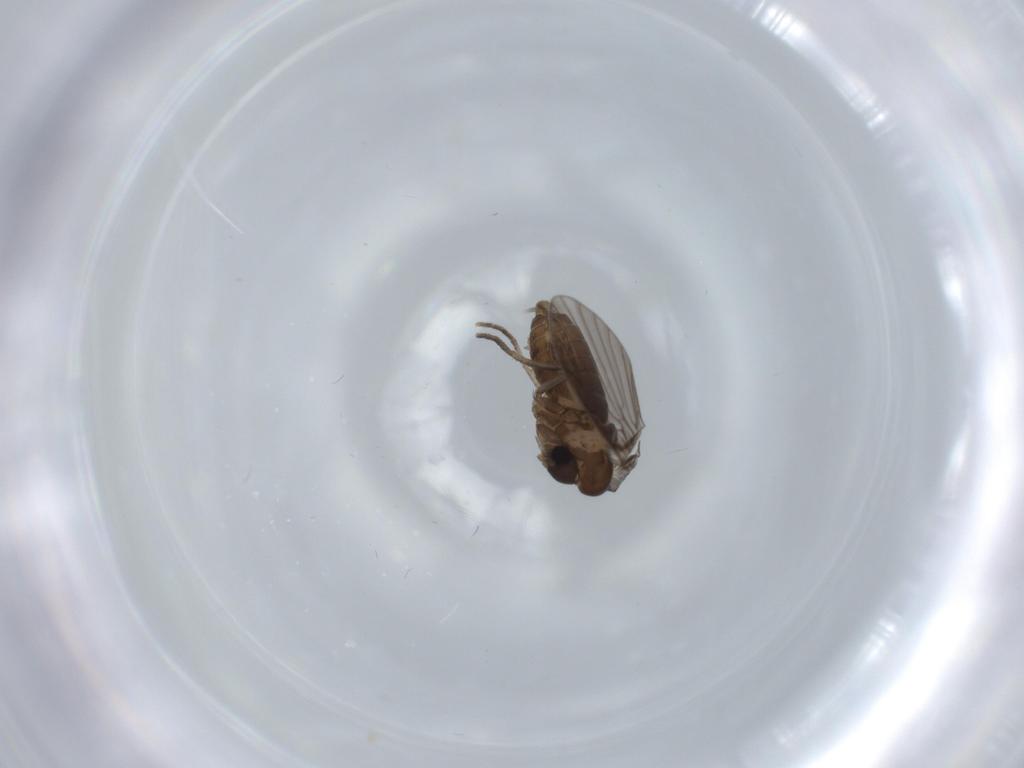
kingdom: Animalia
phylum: Arthropoda
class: Insecta
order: Diptera
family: Psychodidae
